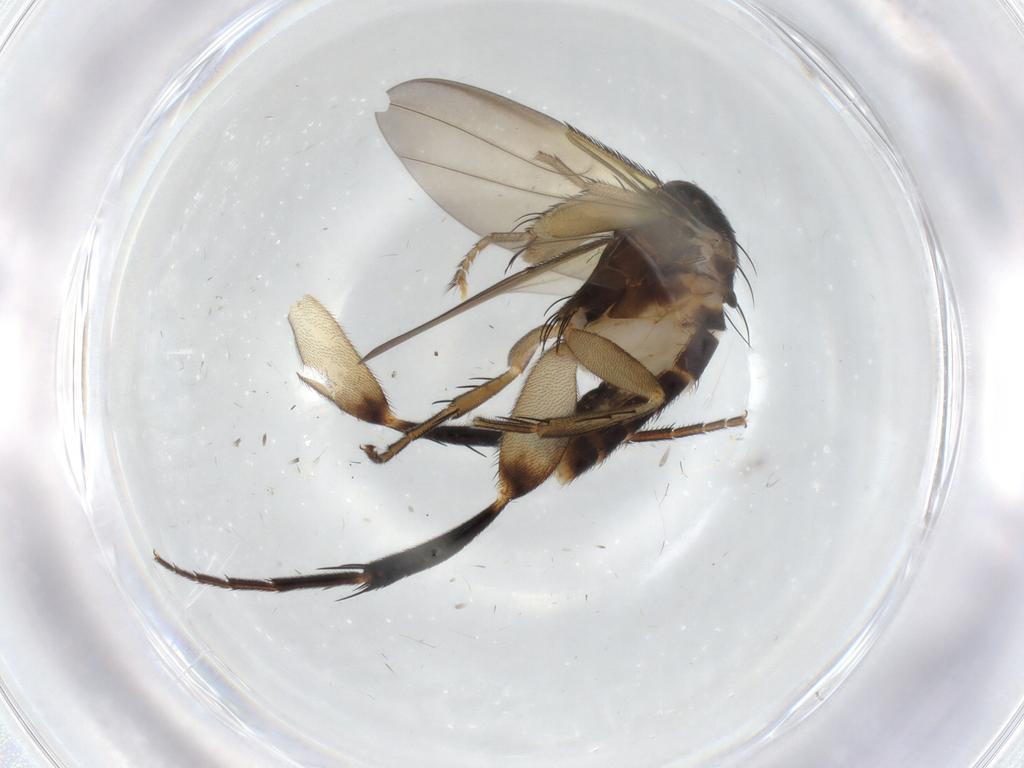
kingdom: Animalia
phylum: Arthropoda
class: Insecta
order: Diptera
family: Phoridae
